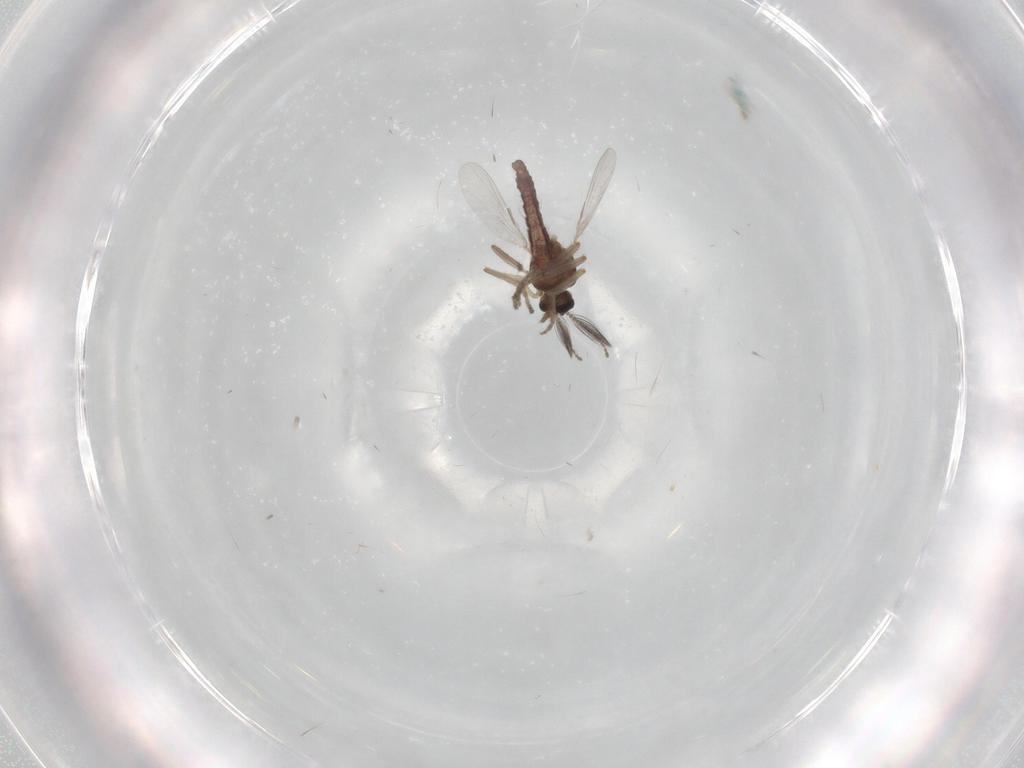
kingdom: Animalia
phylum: Arthropoda
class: Insecta
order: Diptera
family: Ceratopogonidae
